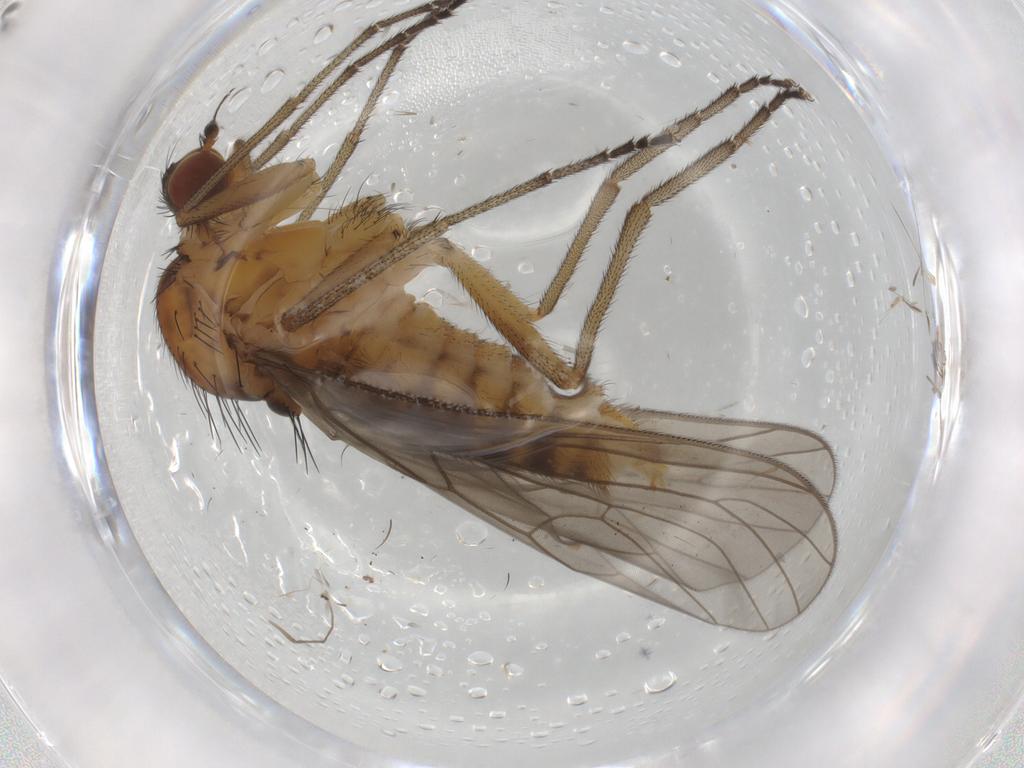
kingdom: Animalia
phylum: Arthropoda
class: Insecta
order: Diptera
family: Brachystomatidae
